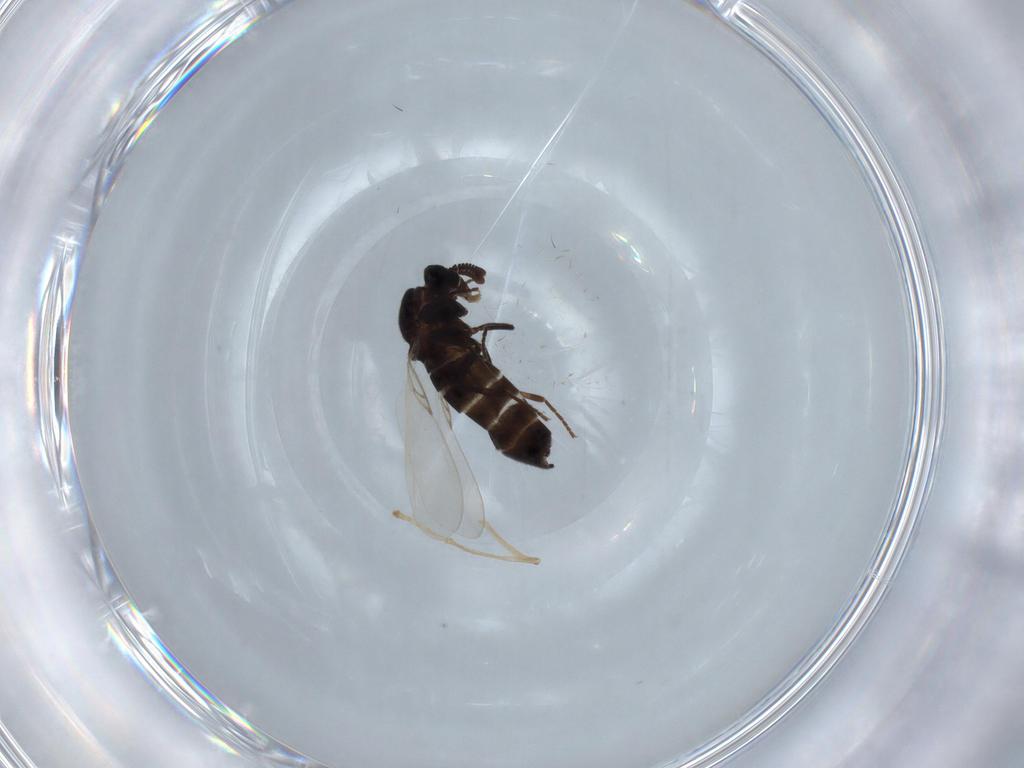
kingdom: Animalia
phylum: Arthropoda
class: Insecta
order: Diptera
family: Scatopsidae
